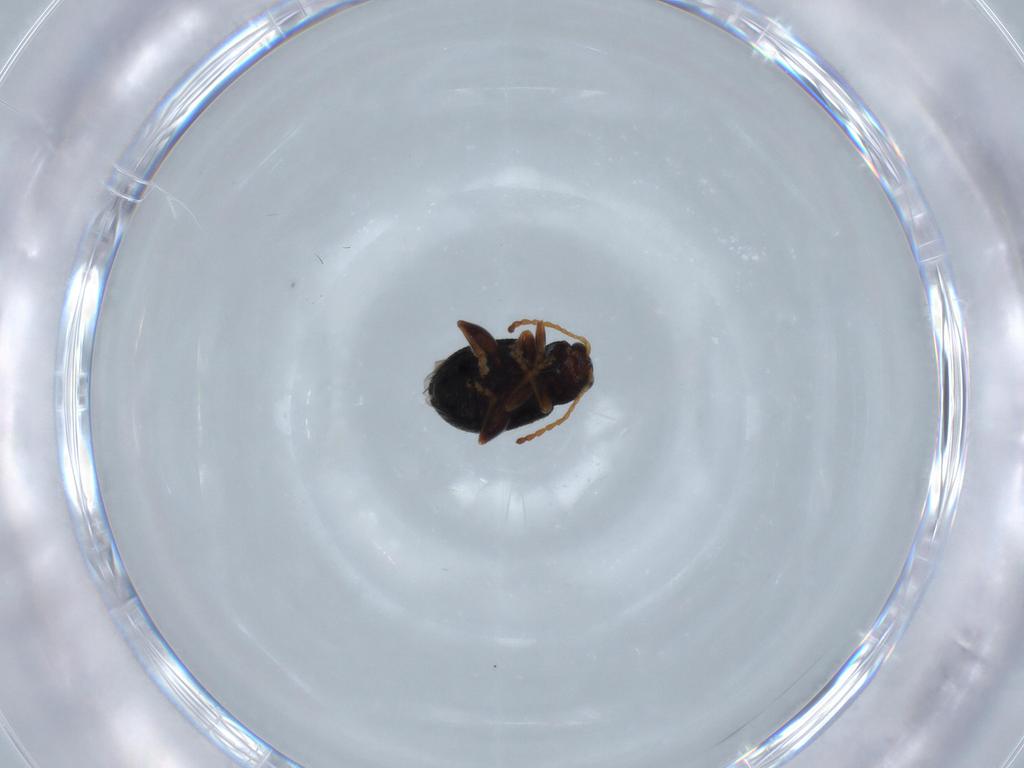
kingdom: Animalia
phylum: Arthropoda
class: Insecta
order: Coleoptera
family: Chrysomelidae
